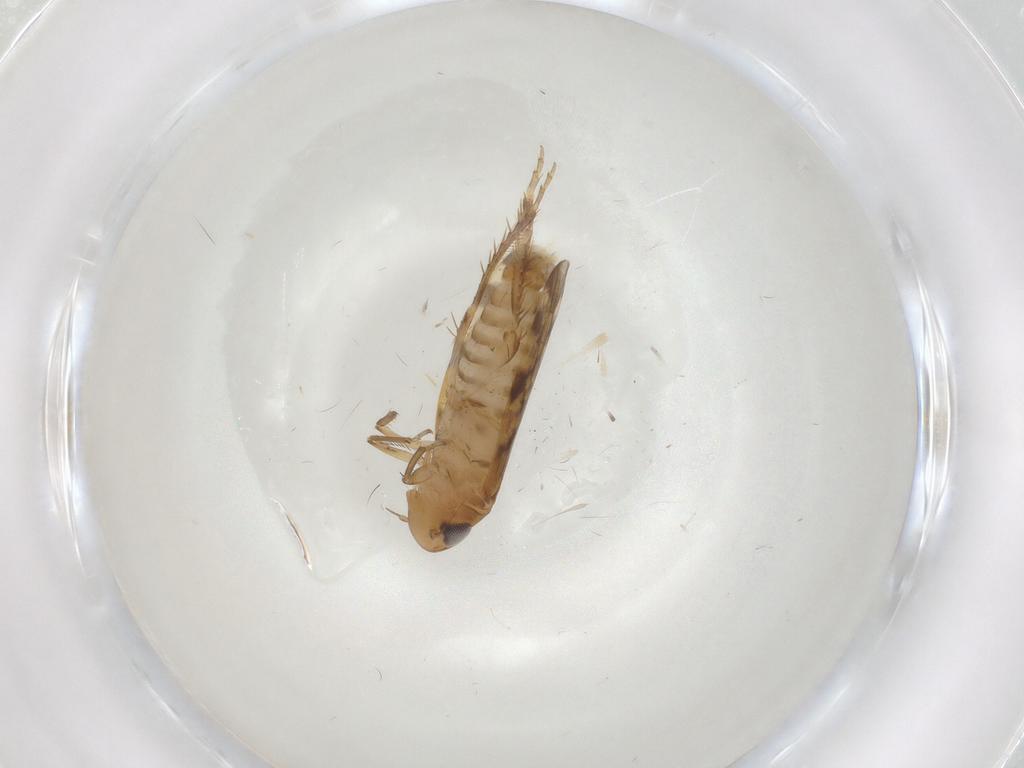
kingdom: Animalia
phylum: Arthropoda
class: Insecta
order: Hemiptera
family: Cicadellidae
